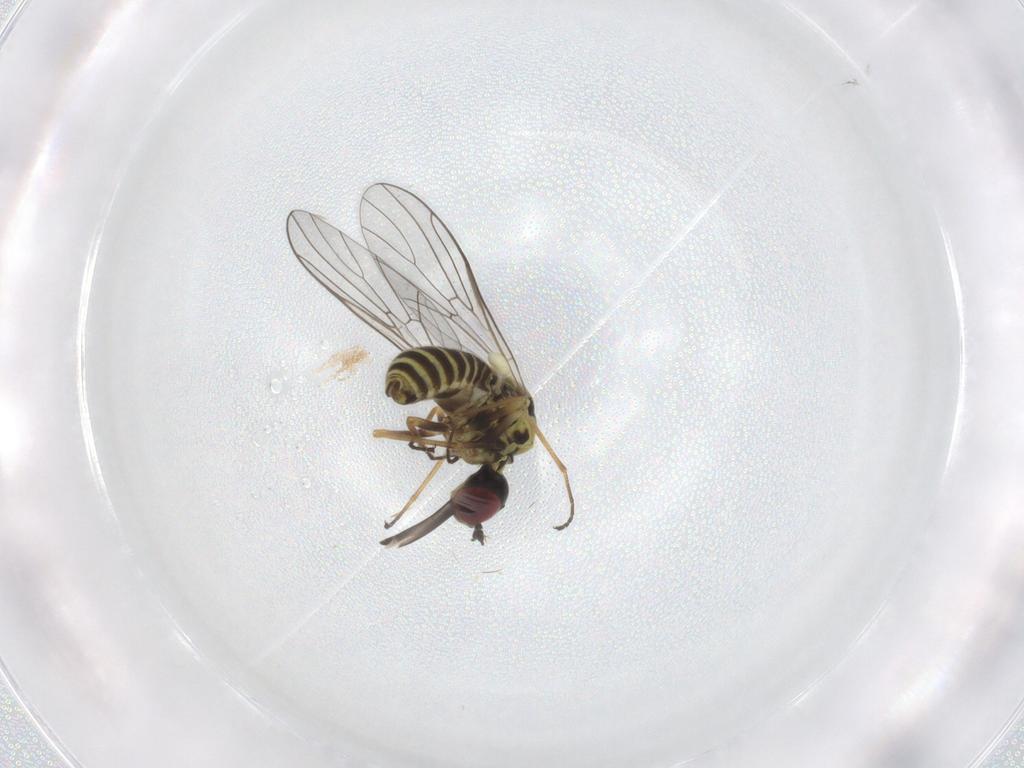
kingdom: Animalia
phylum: Arthropoda
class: Insecta
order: Diptera
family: Bombyliidae
